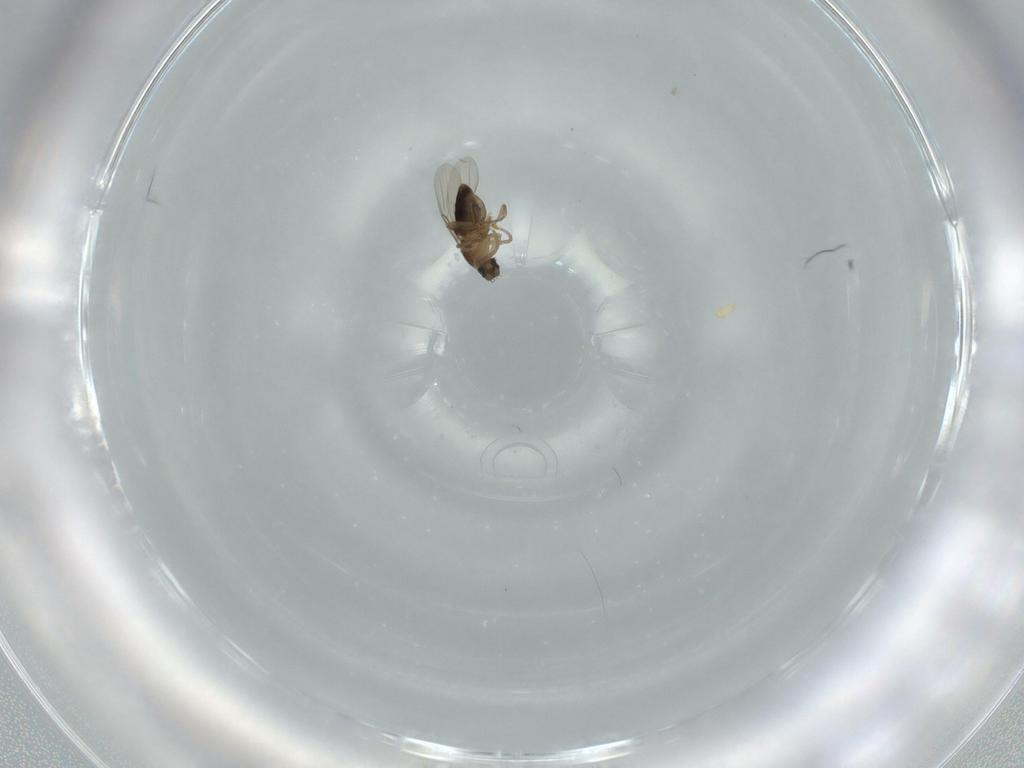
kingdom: Animalia
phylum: Arthropoda
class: Insecta
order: Diptera
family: Phoridae
